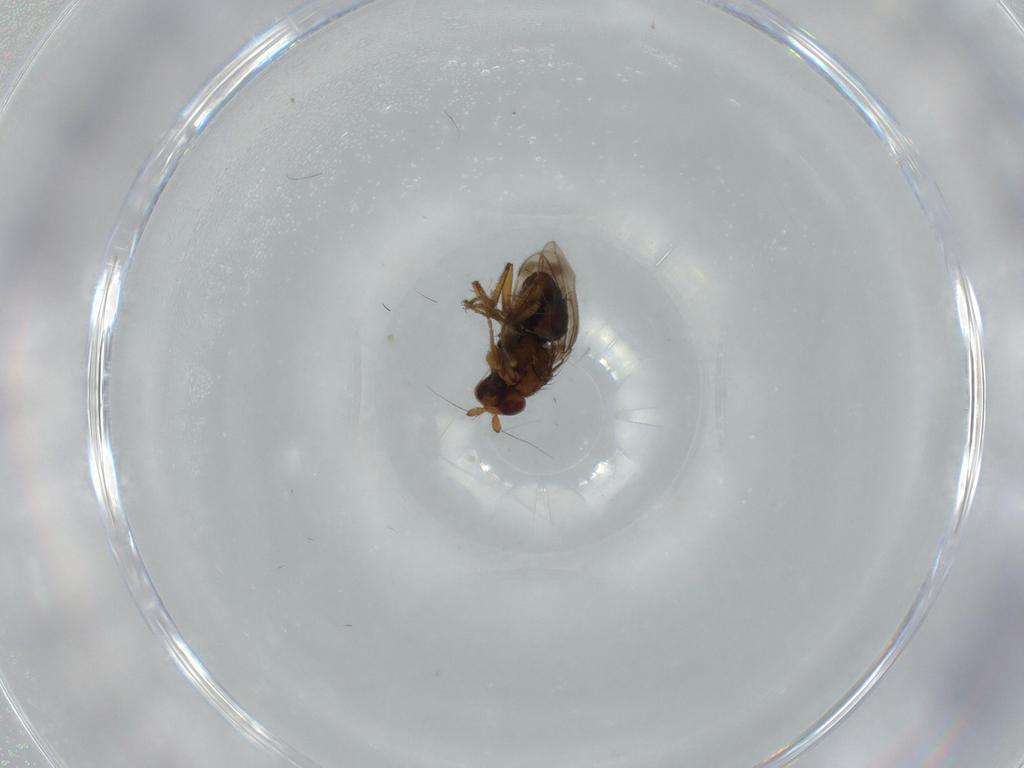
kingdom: Animalia
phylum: Arthropoda
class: Insecta
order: Diptera
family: Sphaeroceridae
